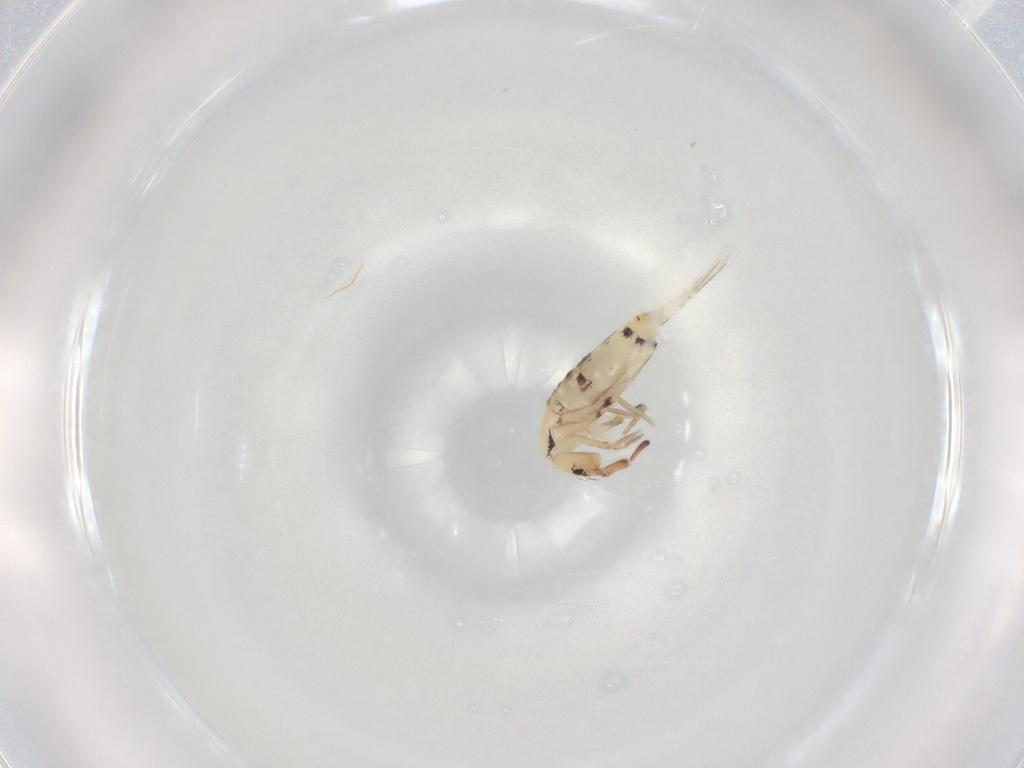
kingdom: Animalia
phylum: Arthropoda
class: Collembola
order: Entomobryomorpha
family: Entomobryidae
